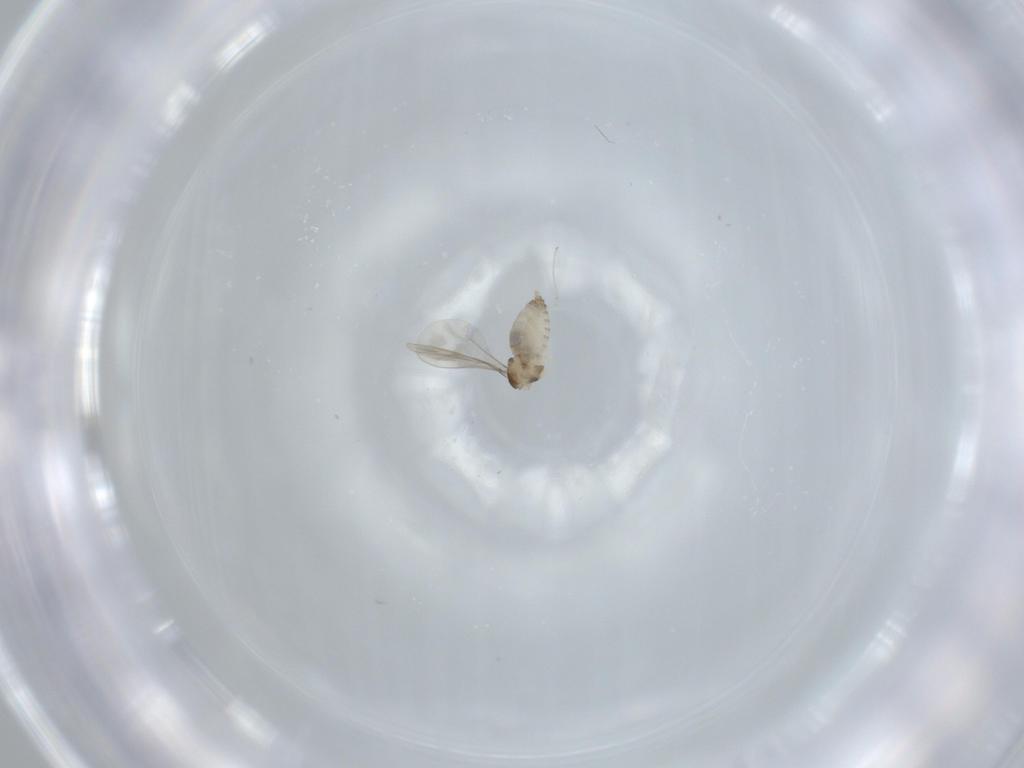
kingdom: Animalia
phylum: Arthropoda
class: Insecta
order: Diptera
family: Cecidomyiidae
